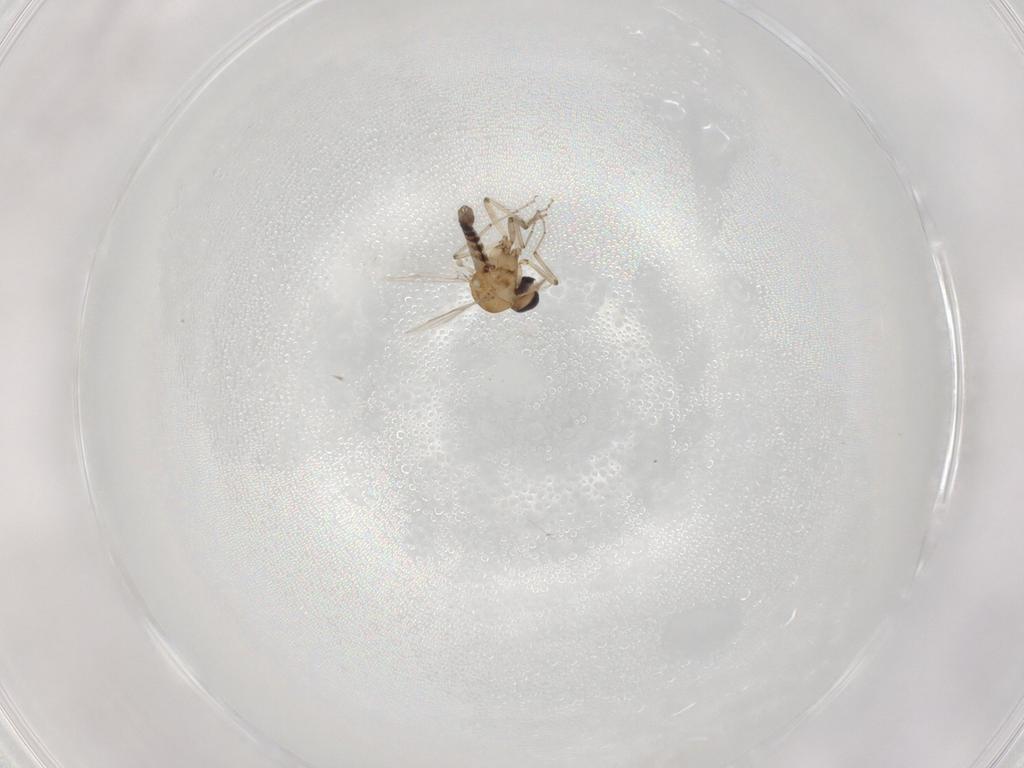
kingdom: Animalia
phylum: Arthropoda
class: Insecta
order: Diptera
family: Ceratopogonidae
